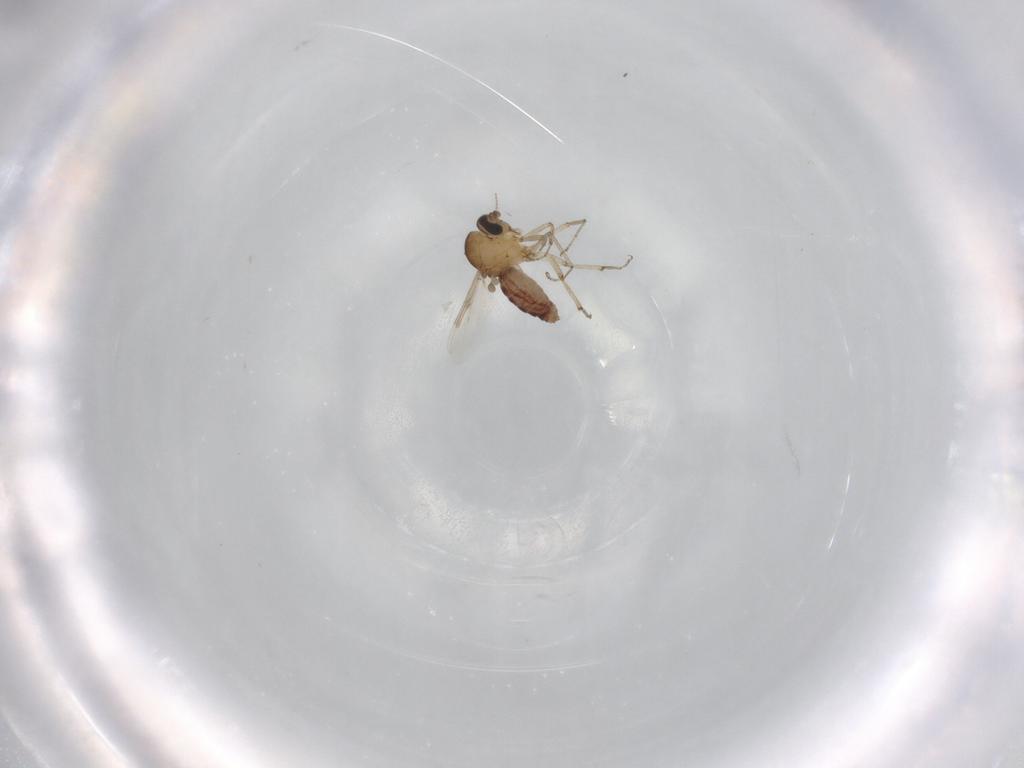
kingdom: Animalia
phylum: Arthropoda
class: Insecta
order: Diptera
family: Ceratopogonidae
